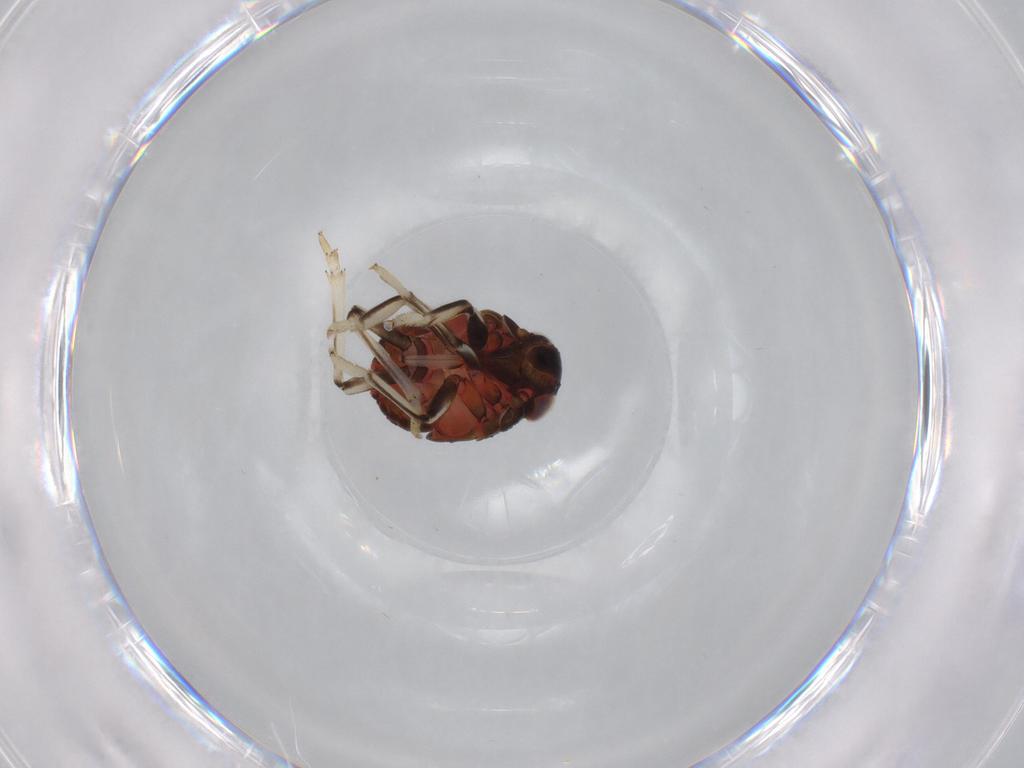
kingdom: Animalia
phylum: Arthropoda
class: Insecta
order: Hemiptera
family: Issidae
